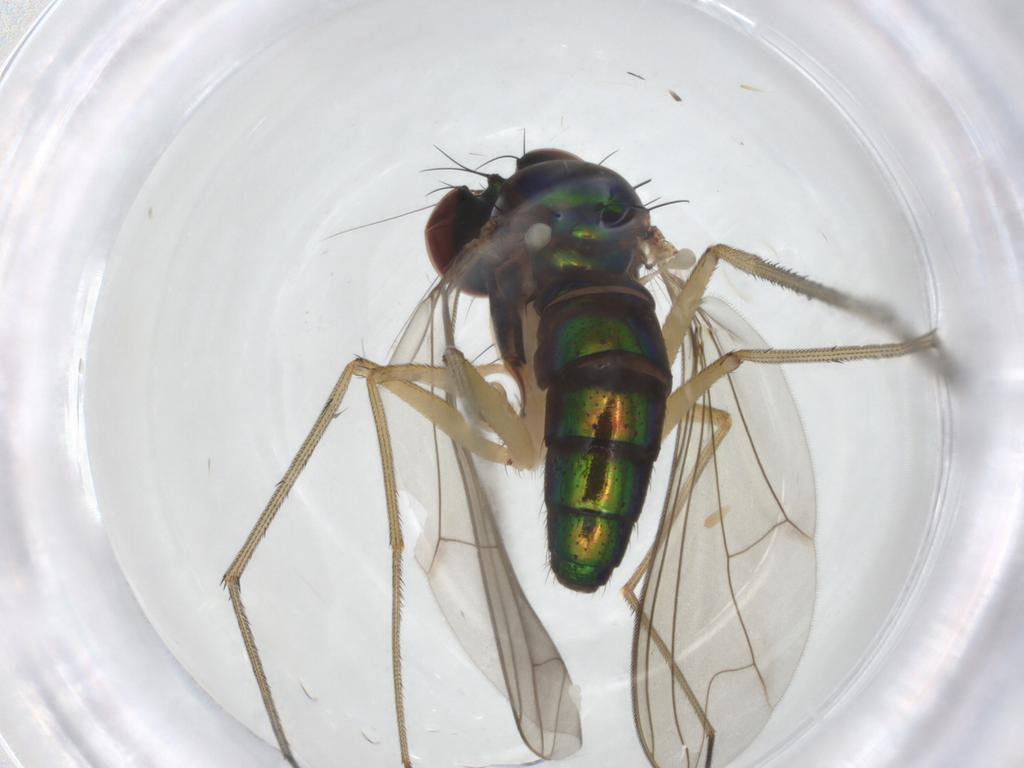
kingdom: Animalia
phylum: Arthropoda
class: Insecta
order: Diptera
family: Dolichopodidae
